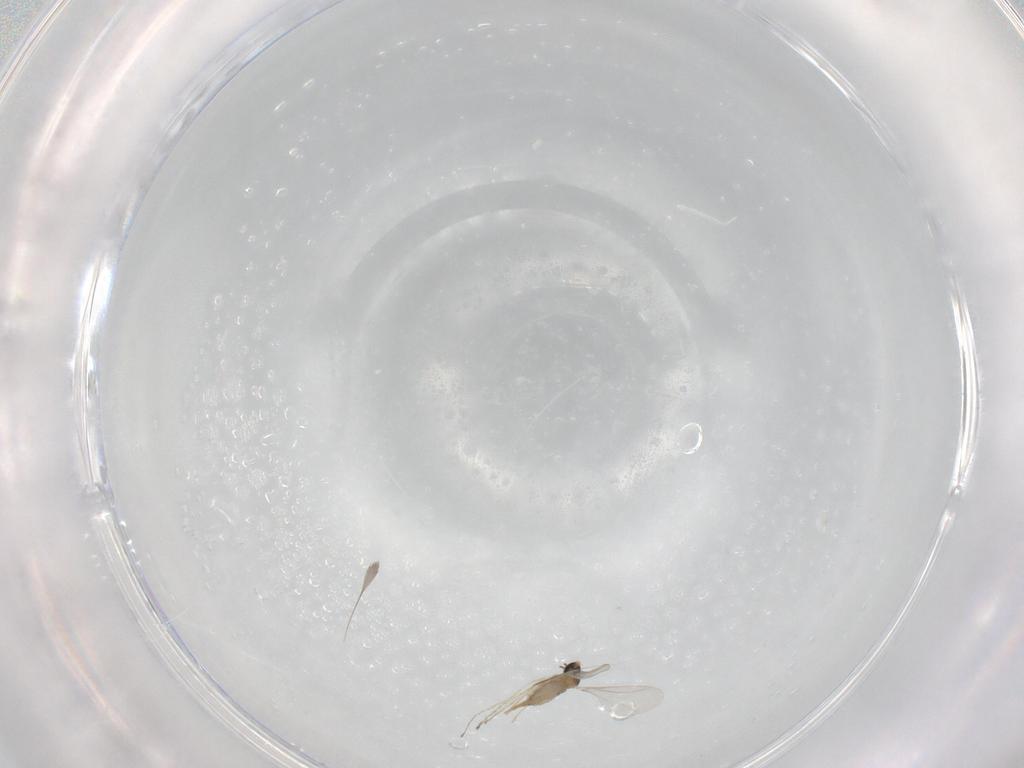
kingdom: Animalia
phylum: Arthropoda
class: Insecta
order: Diptera
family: Cecidomyiidae
